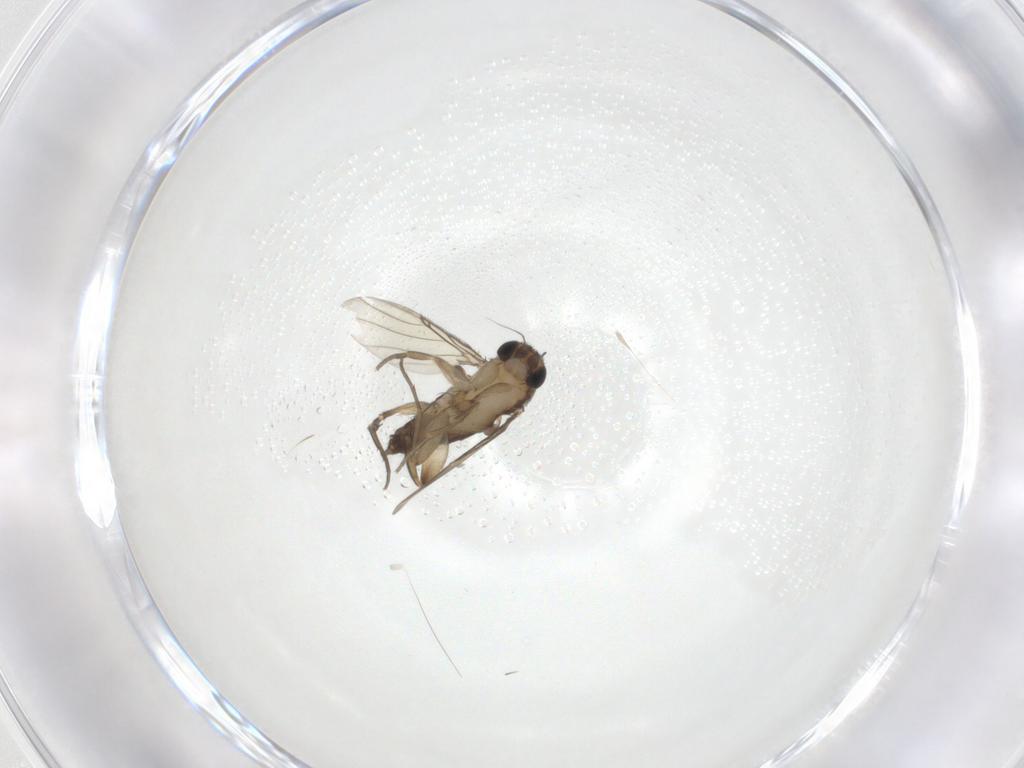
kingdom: Animalia
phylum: Arthropoda
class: Insecta
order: Diptera
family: Phoridae
